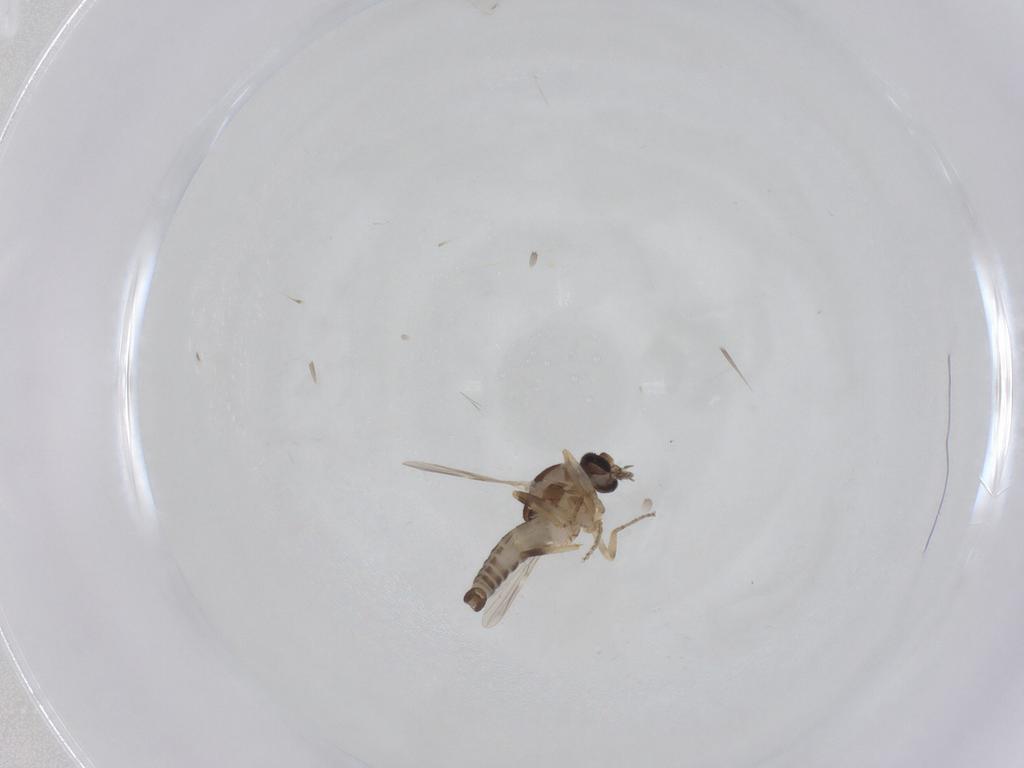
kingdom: Animalia
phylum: Arthropoda
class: Insecta
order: Diptera
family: Ceratopogonidae
